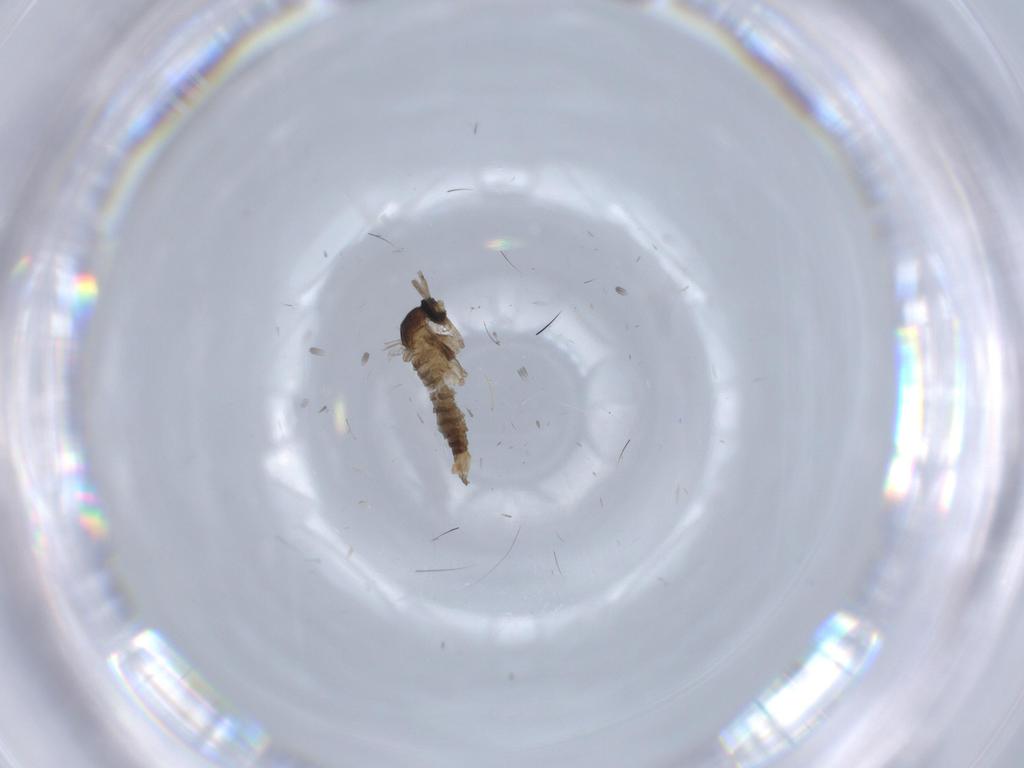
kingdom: Animalia
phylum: Arthropoda
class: Insecta
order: Diptera
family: Cecidomyiidae
